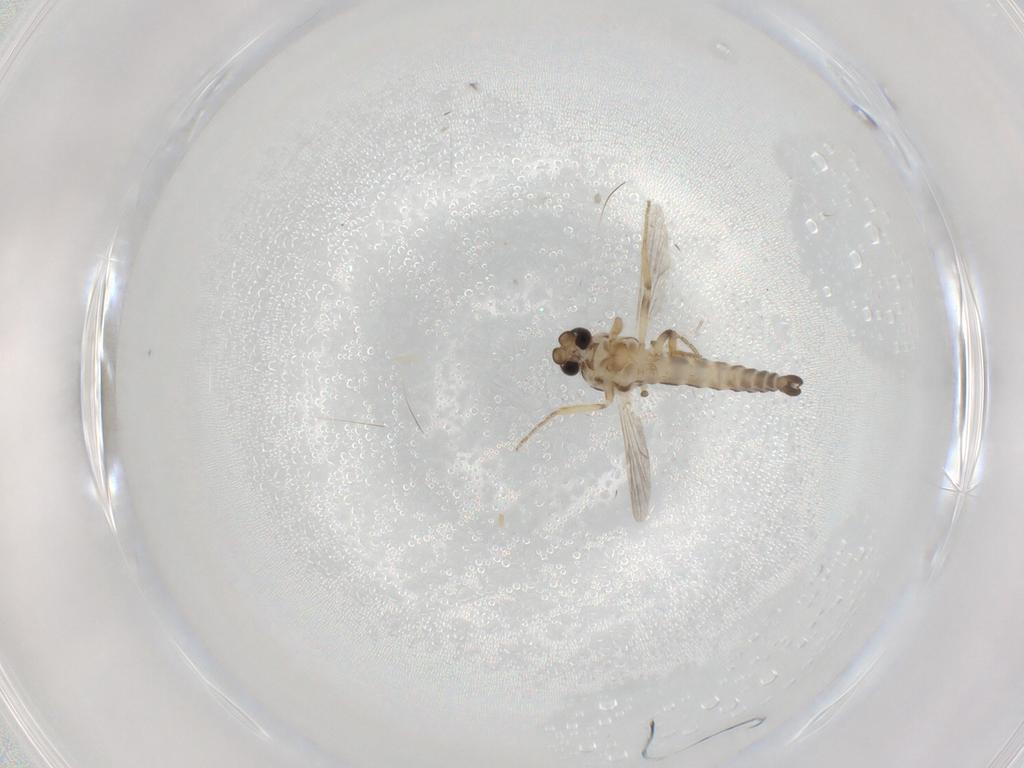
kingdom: Animalia
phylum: Arthropoda
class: Insecta
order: Diptera
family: Ceratopogonidae
